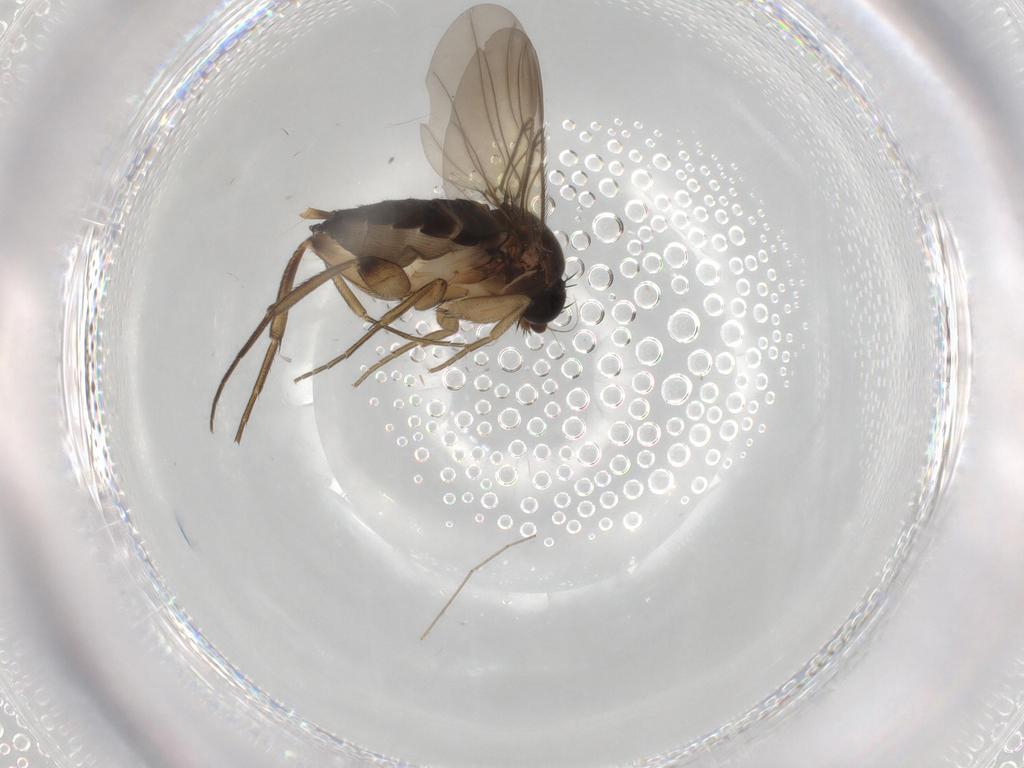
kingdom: Animalia
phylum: Arthropoda
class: Insecta
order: Diptera
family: Phoridae
